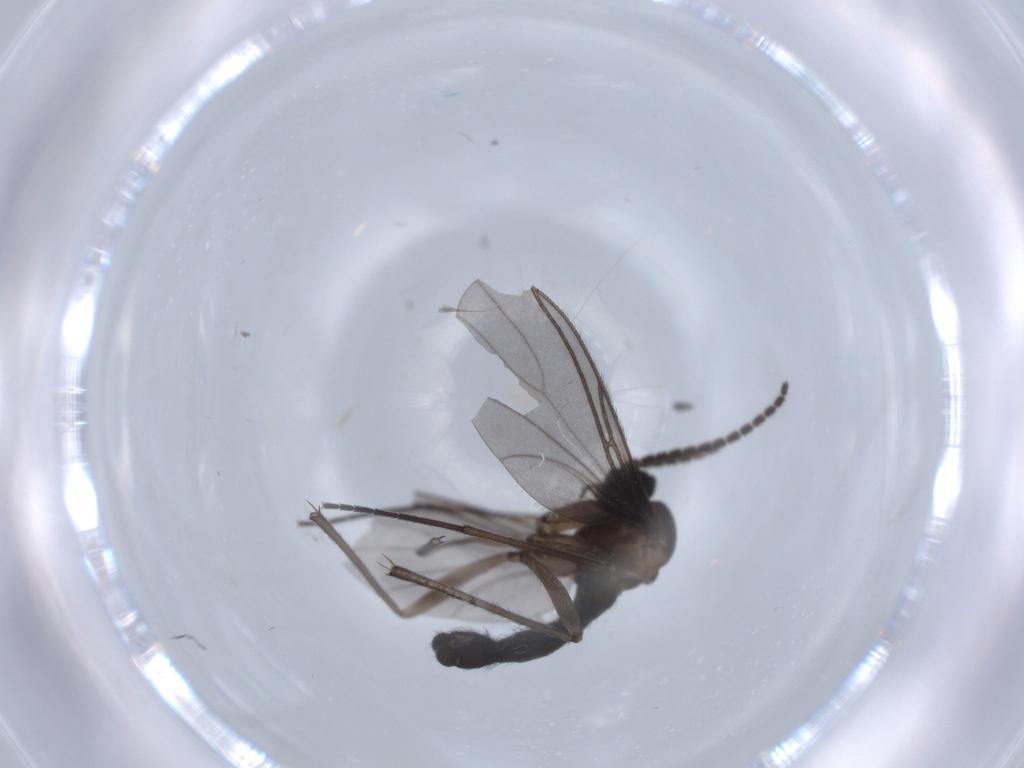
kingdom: Animalia
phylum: Arthropoda
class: Insecta
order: Diptera
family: Sciaridae
